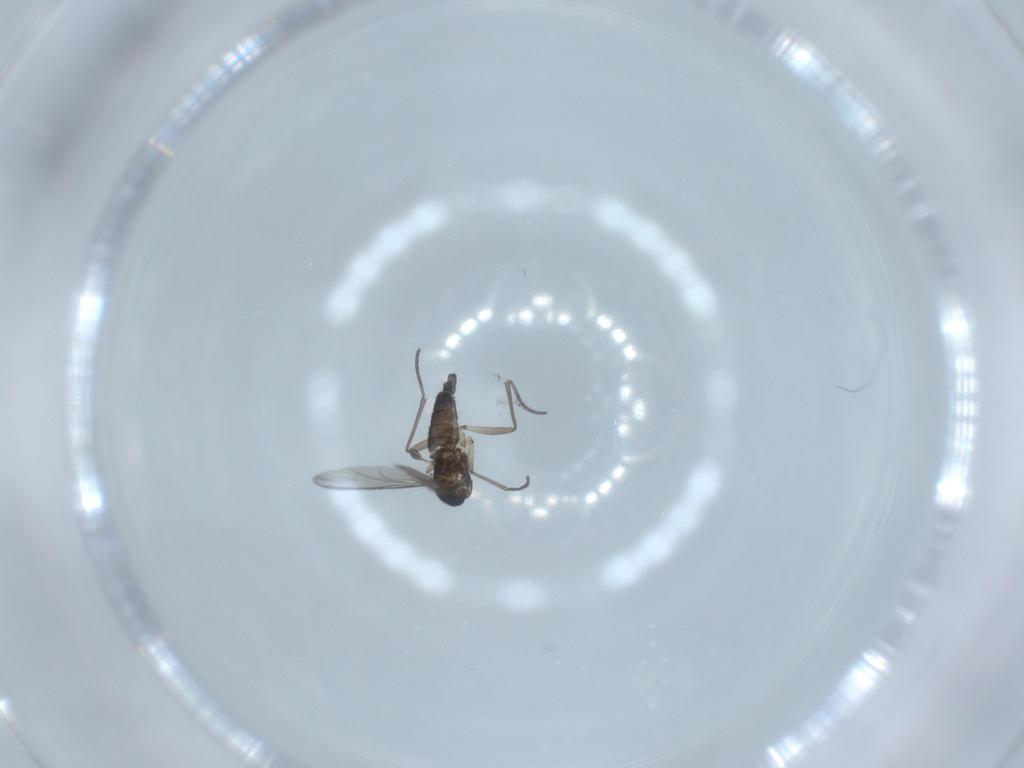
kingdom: Animalia
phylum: Arthropoda
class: Insecta
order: Diptera
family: Sciaridae
